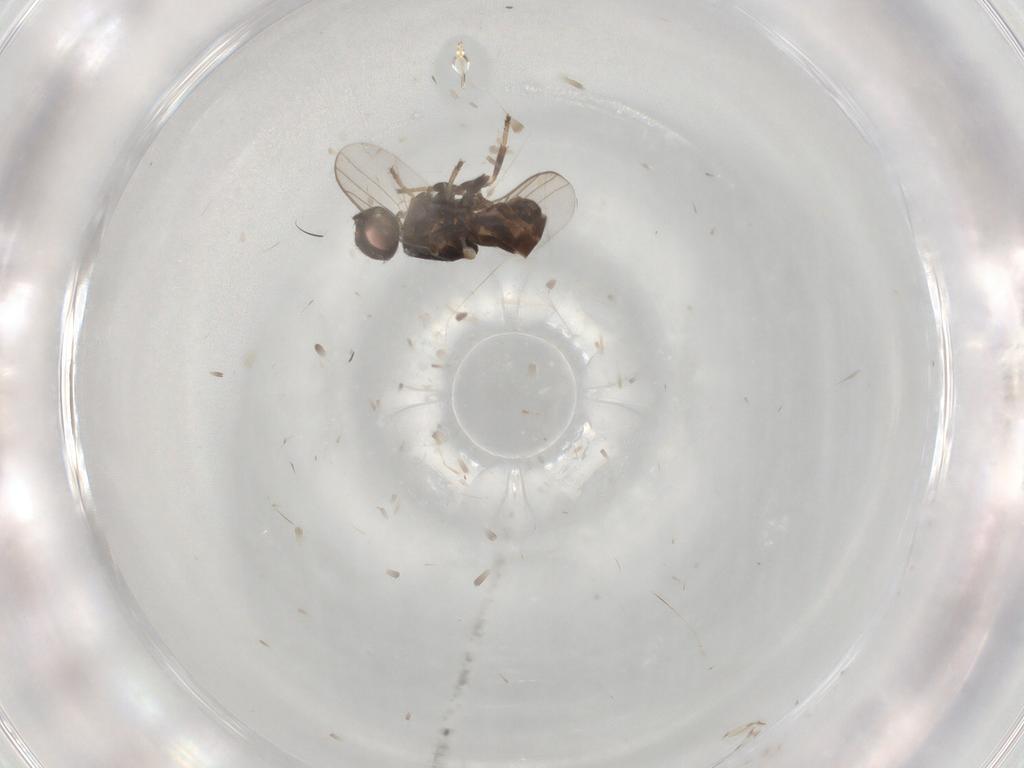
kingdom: Animalia
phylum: Arthropoda
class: Insecta
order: Diptera
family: Chloropidae
